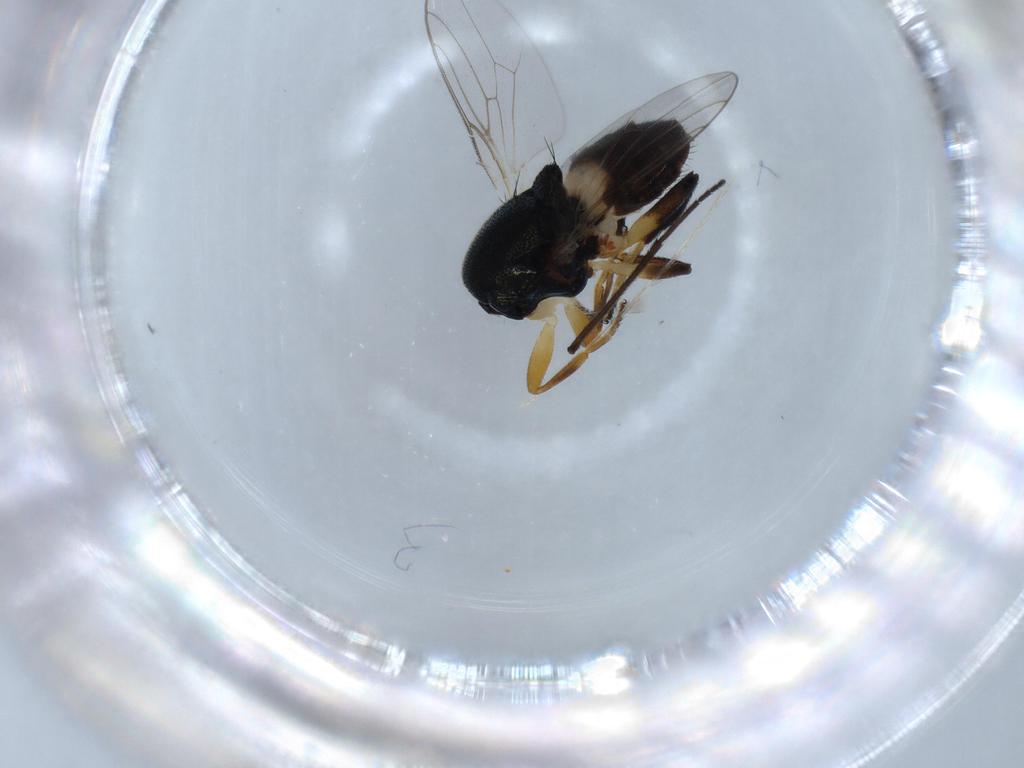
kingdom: Animalia
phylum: Arthropoda
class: Insecta
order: Diptera
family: Chloropidae
